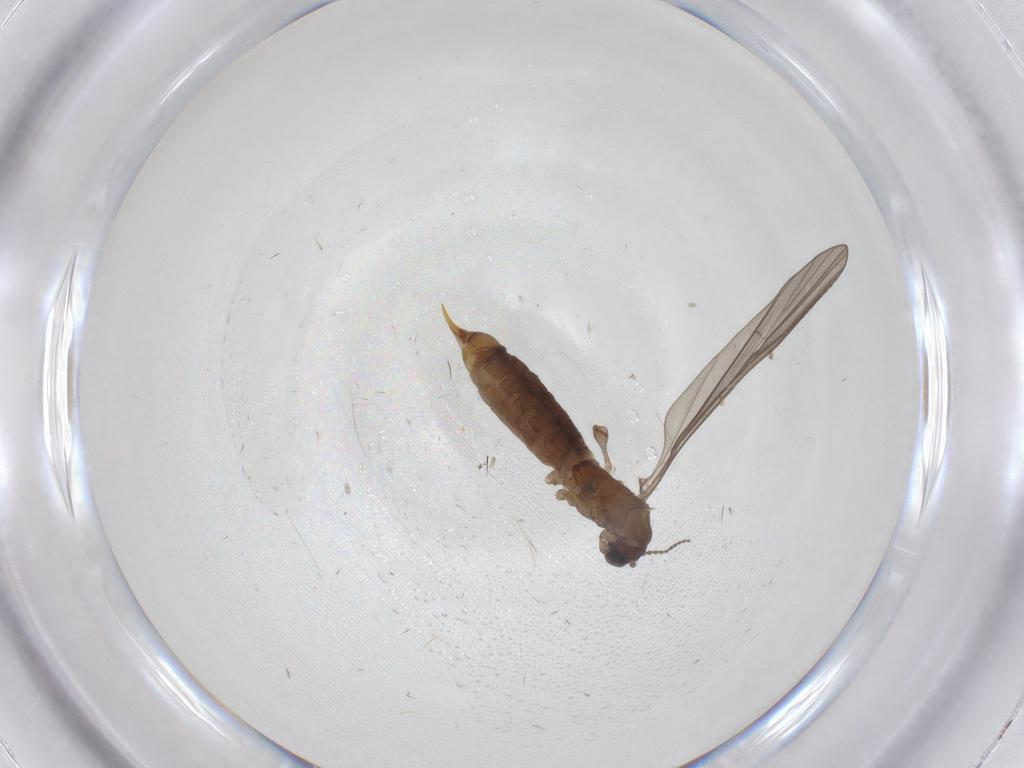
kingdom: Animalia
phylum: Arthropoda
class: Insecta
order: Diptera
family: Limoniidae
